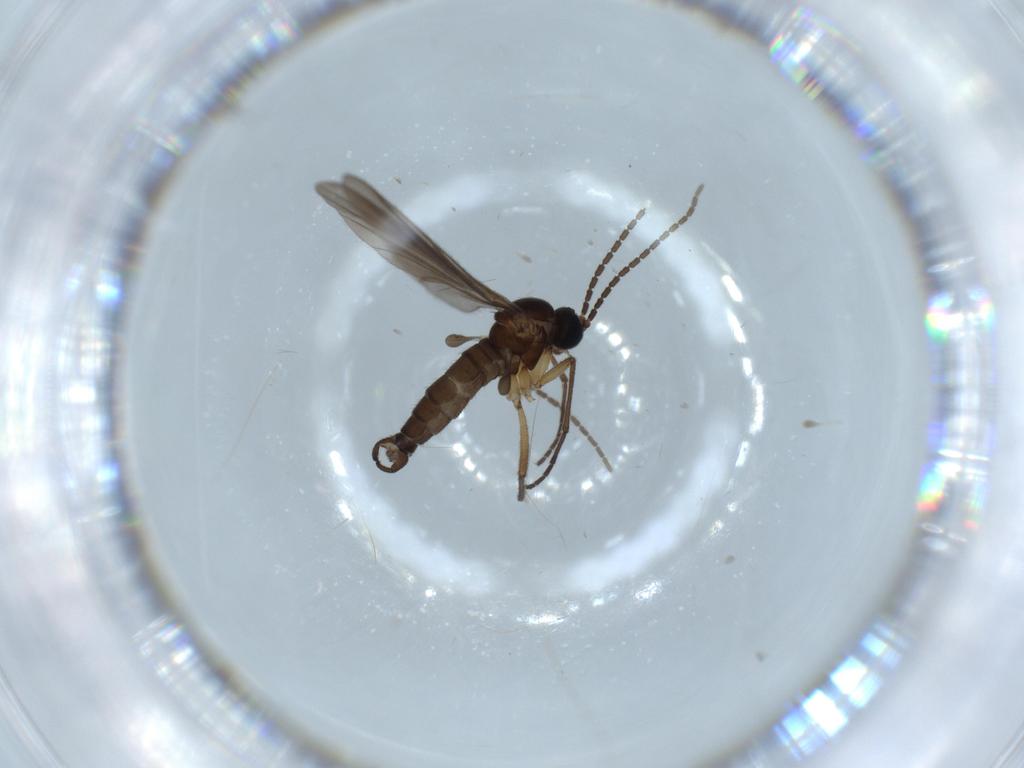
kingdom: Animalia
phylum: Arthropoda
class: Insecta
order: Diptera
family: Sciaridae
